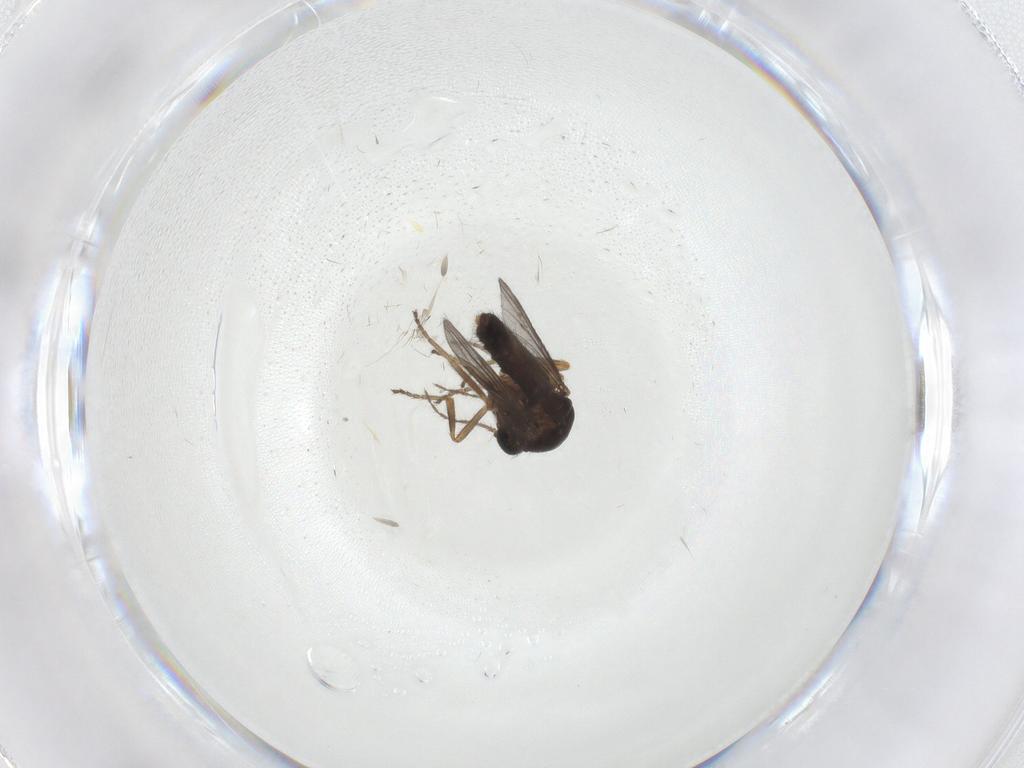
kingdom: Animalia
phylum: Arthropoda
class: Insecta
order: Diptera
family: Ceratopogonidae
